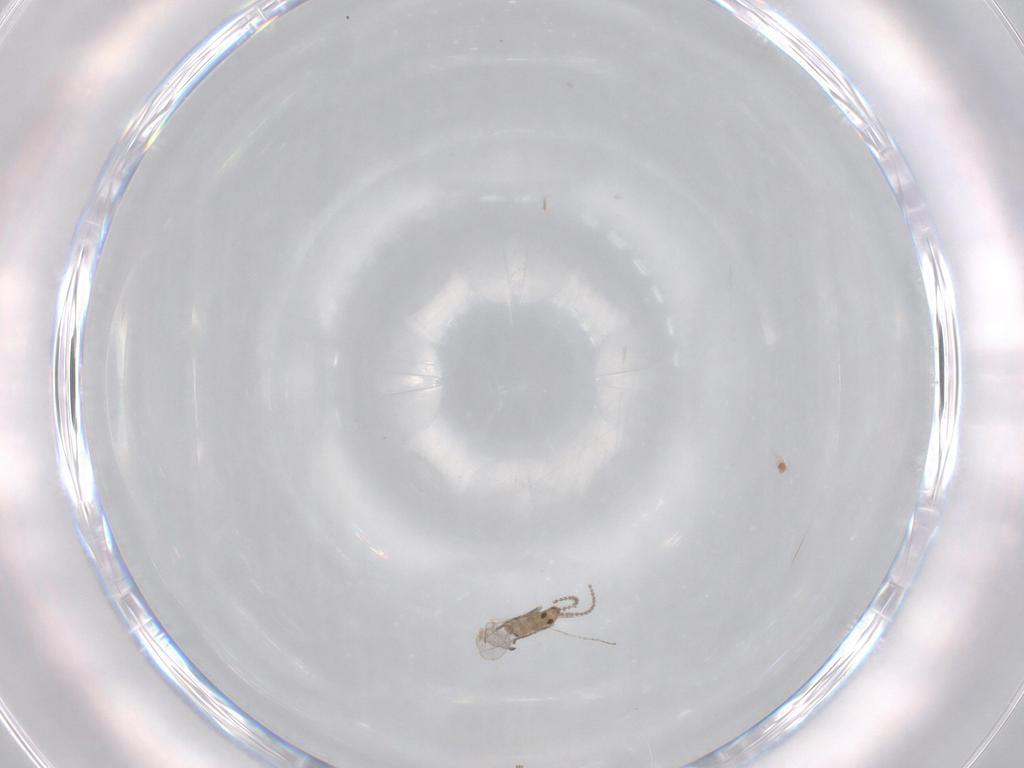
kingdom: Animalia
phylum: Arthropoda
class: Insecta
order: Diptera
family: Cecidomyiidae
